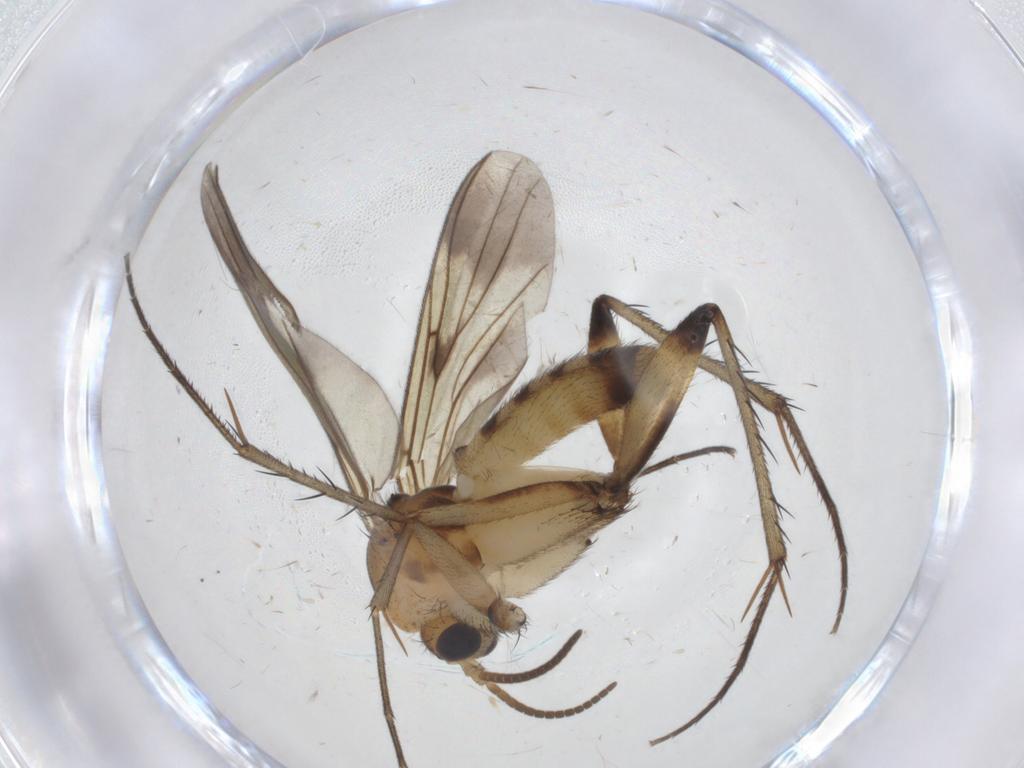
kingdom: Animalia
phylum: Arthropoda
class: Insecta
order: Diptera
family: Mycetophilidae
